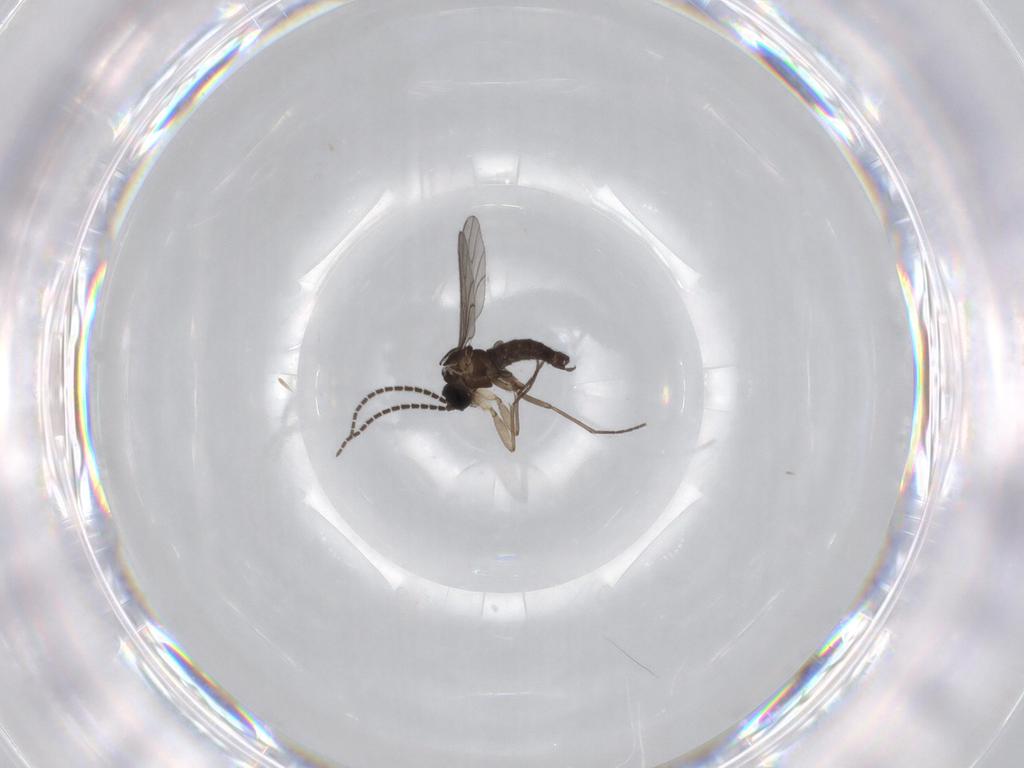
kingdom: Animalia
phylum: Arthropoda
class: Insecta
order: Diptera
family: Sciaridae
